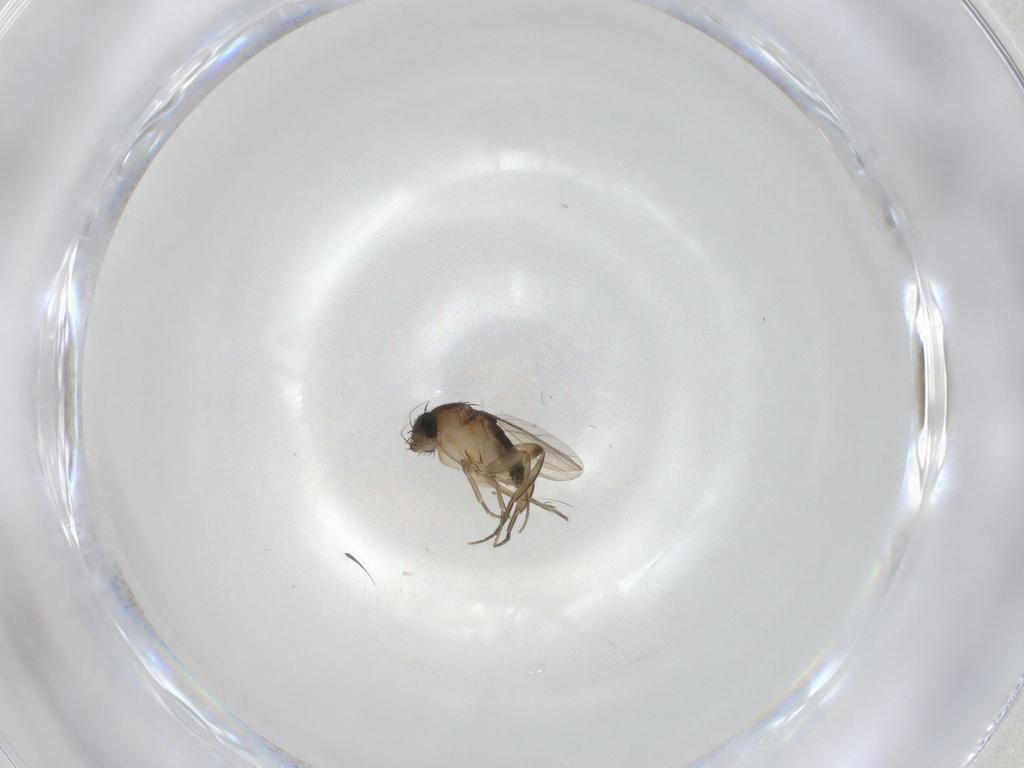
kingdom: Animalia
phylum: Arthropoda
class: Insecta
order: Diptera
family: Phoridae
